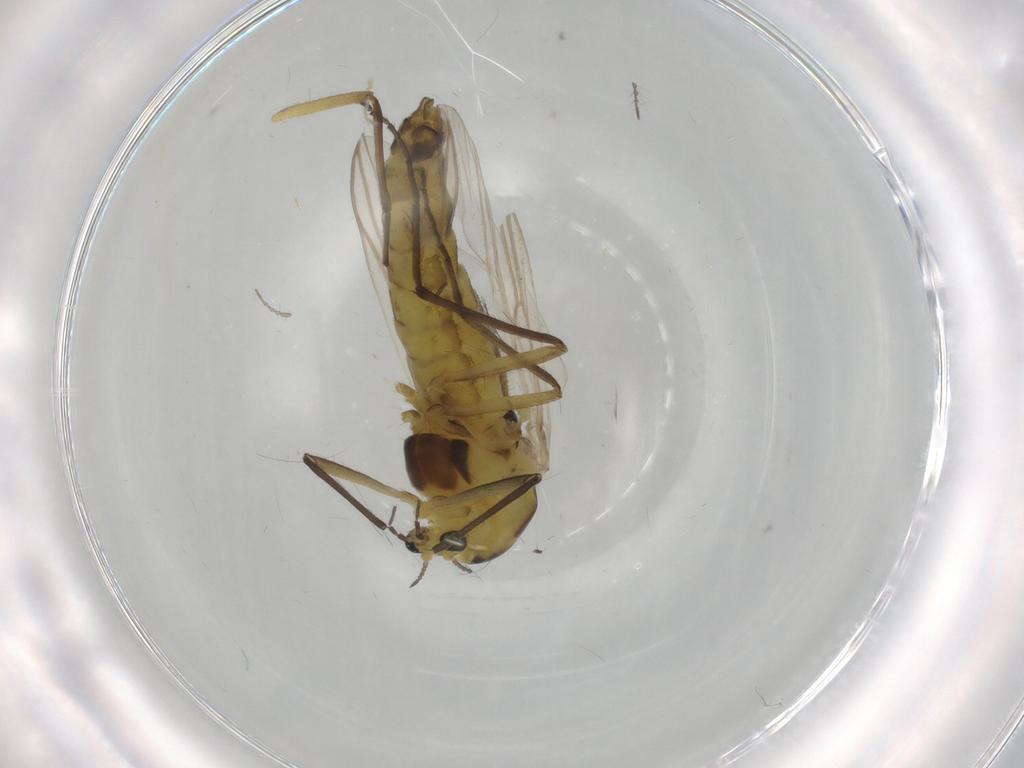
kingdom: Animalia
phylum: Arthropoda
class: Insecta
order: Diptera
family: Chironomidae
